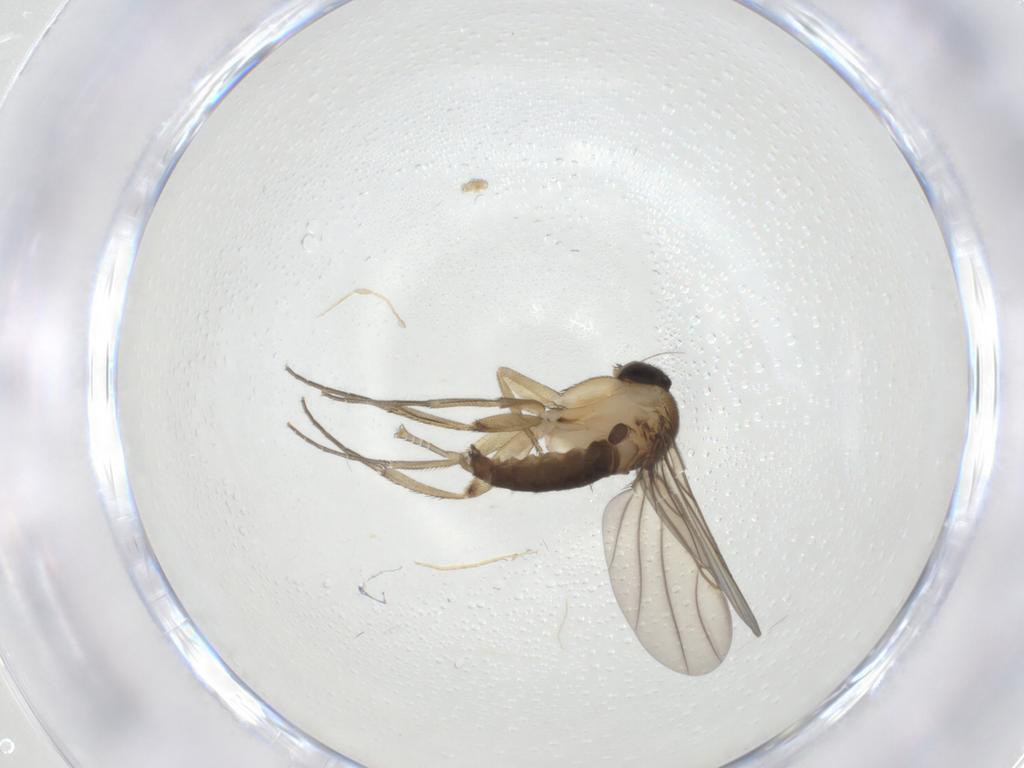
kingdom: Animalia
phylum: Arthropoda
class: Insecta
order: Diptera
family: Phoridae
